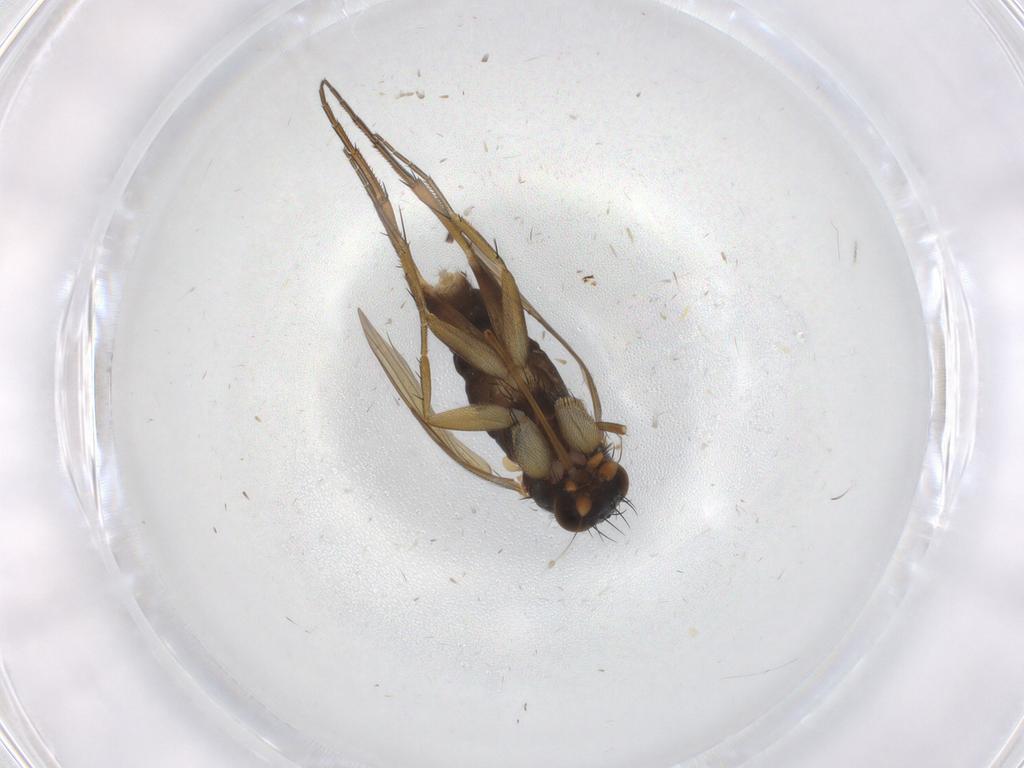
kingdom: Animalia
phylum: Arthropoda
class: Insecta
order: Diptera
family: Phoridae
